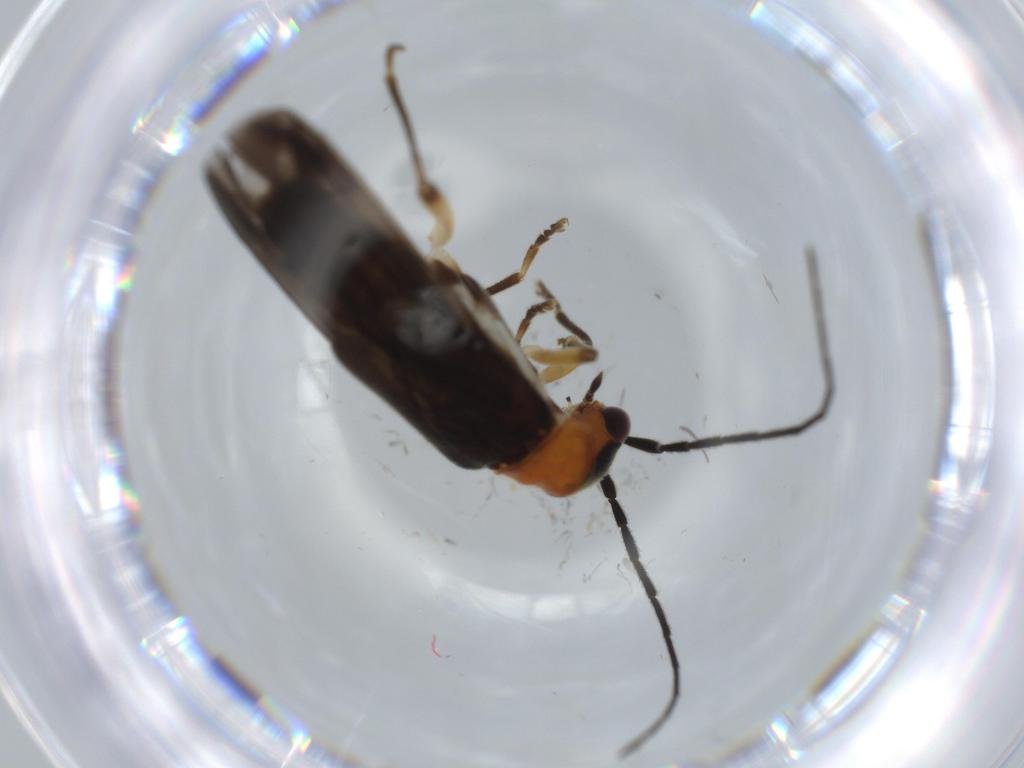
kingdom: Animalia
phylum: Arthropoda
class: Insecta
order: Coleoptera
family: Cantharidae
